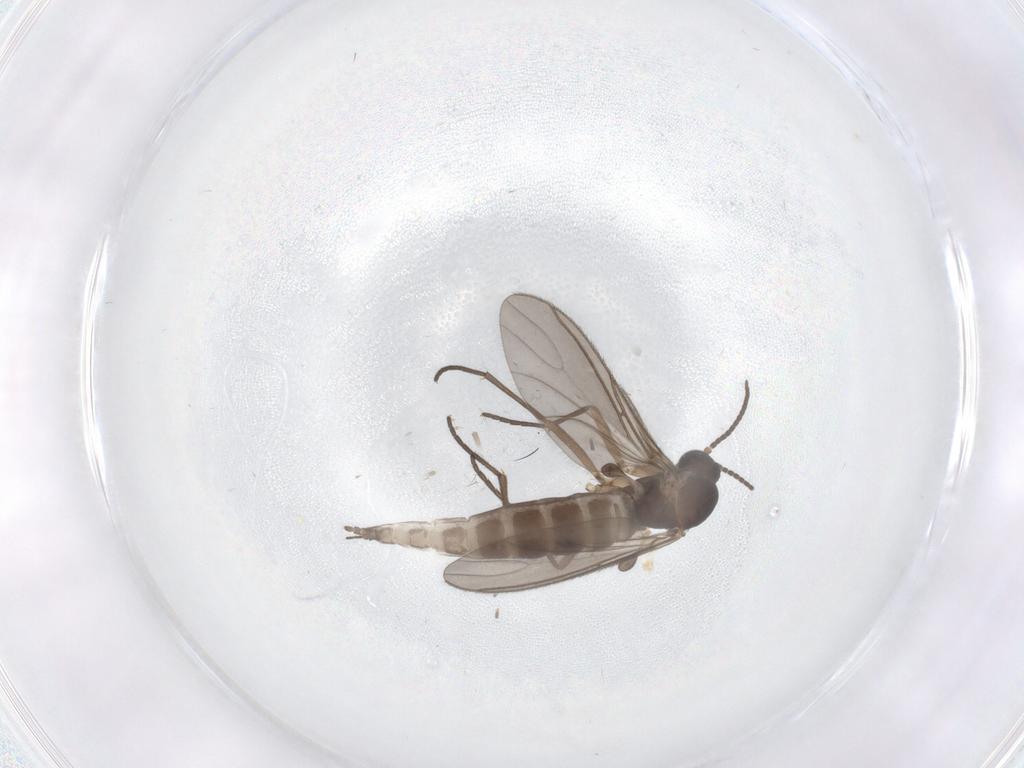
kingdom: Animalia
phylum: Arthropoda
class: Insecta
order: Diptera
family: Sciaridae
